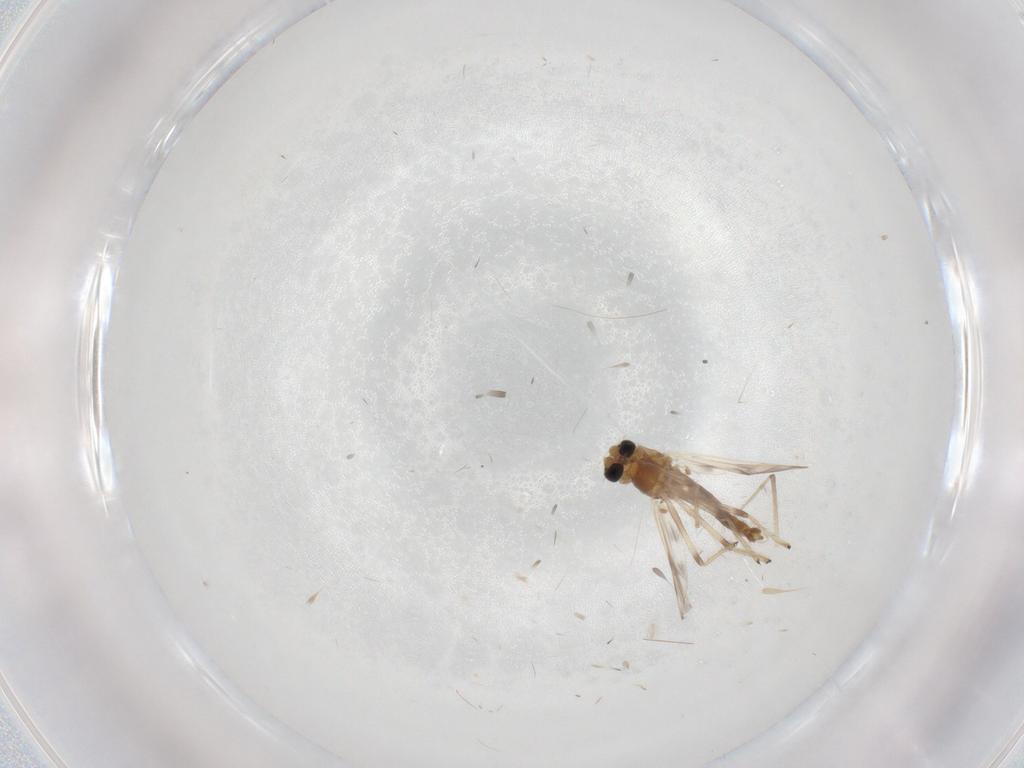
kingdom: Animalia
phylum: Arthropoda
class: Insecta
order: Diptera
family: Chironomidae
